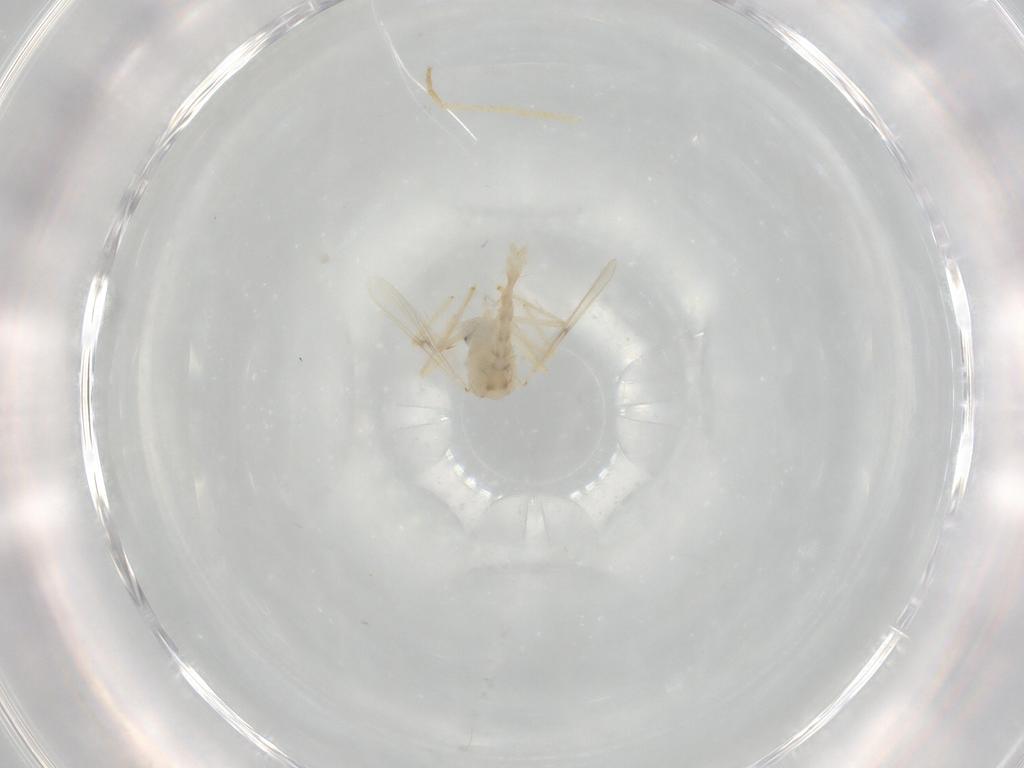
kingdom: Animalia
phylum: Arthropoda
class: Insecta
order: Diptera
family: Chironomidae
